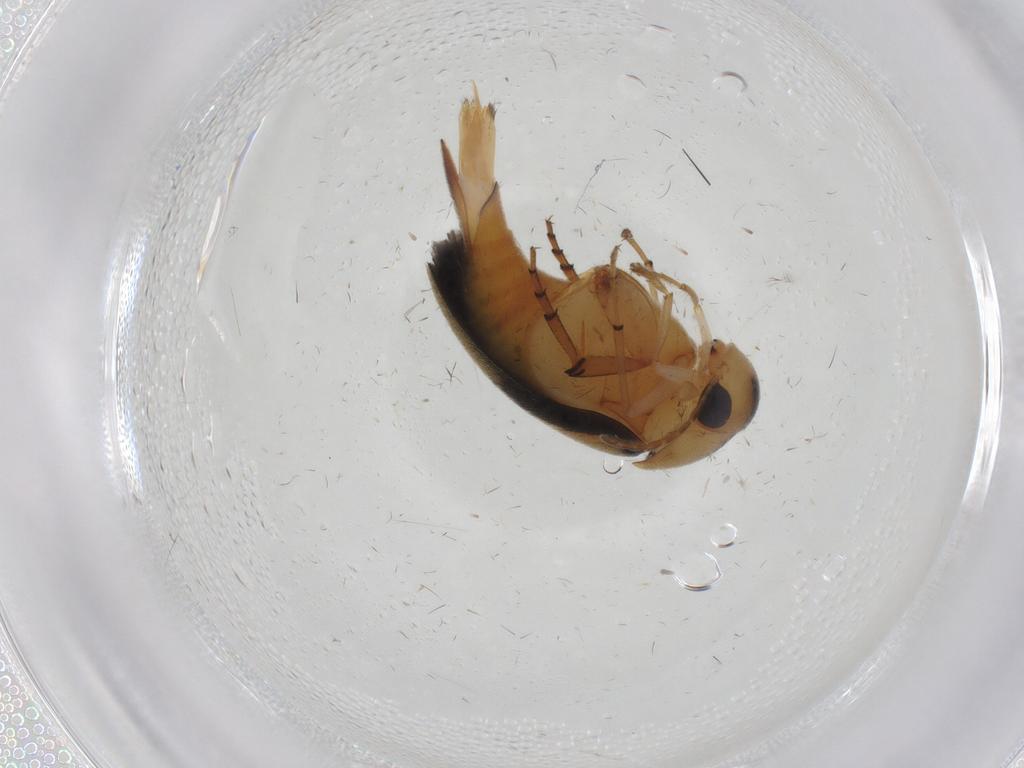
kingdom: Animalia
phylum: Arthropoda
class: Insecta
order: Coleoptera
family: Mordellidae
